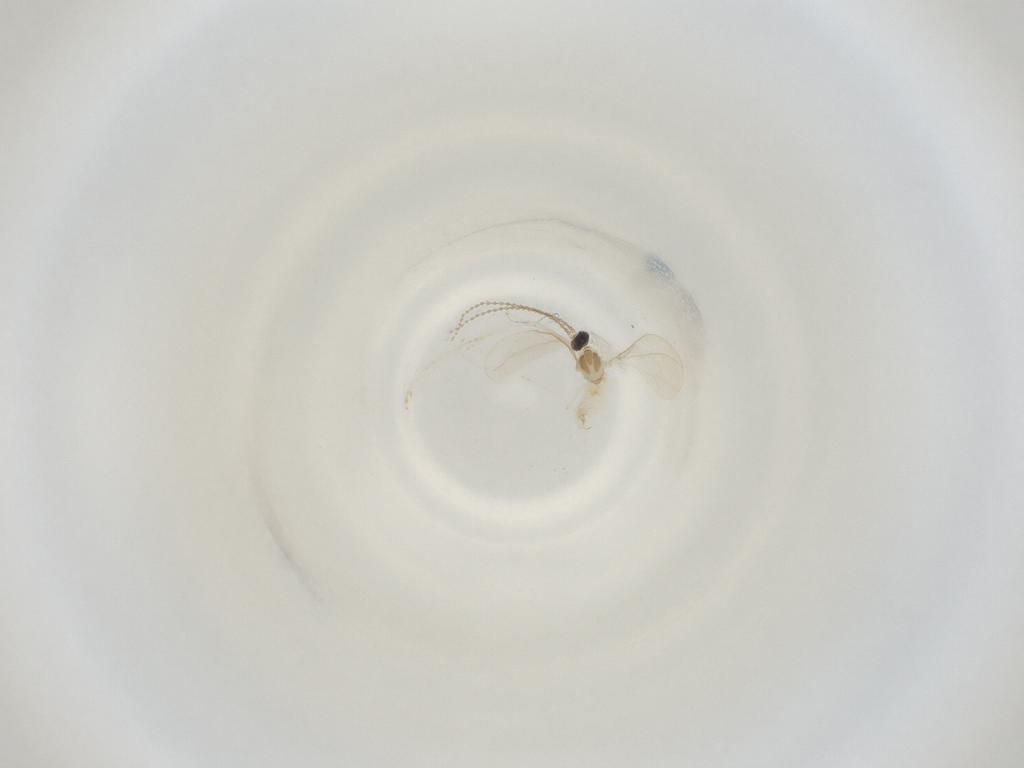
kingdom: Animalia
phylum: Arthropoda
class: Insecta
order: Diptera
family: Cecidomyiidae
